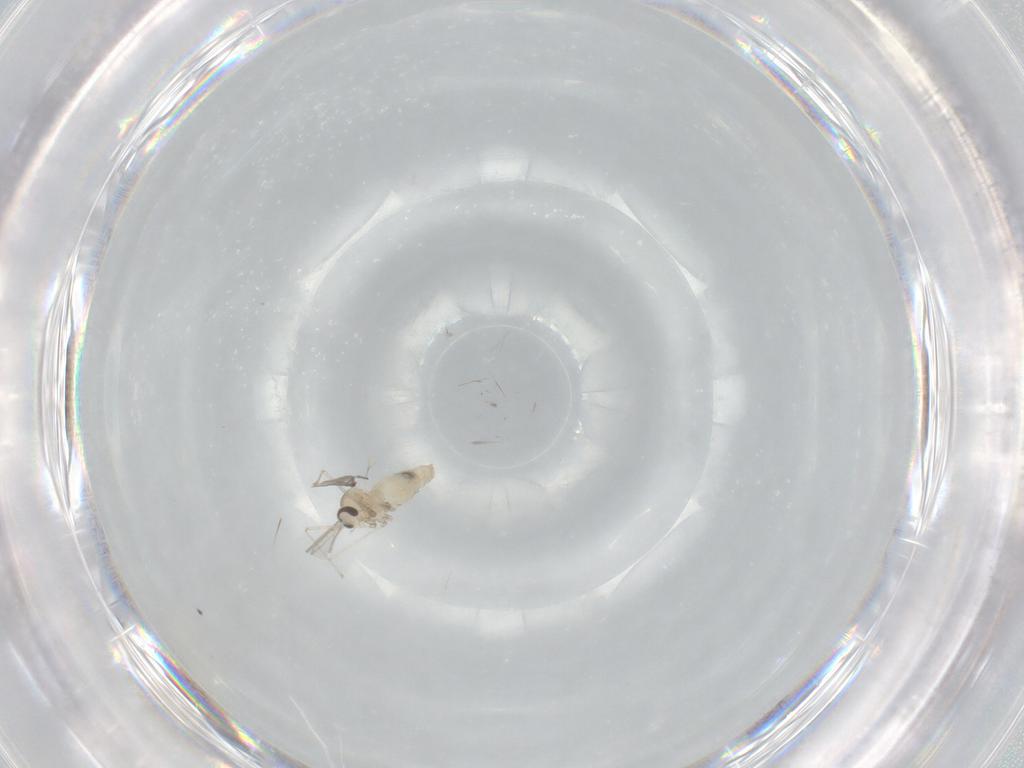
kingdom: Animalia
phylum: Arthropoda
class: Insecta
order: Diptera
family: Cecidomyiidae
